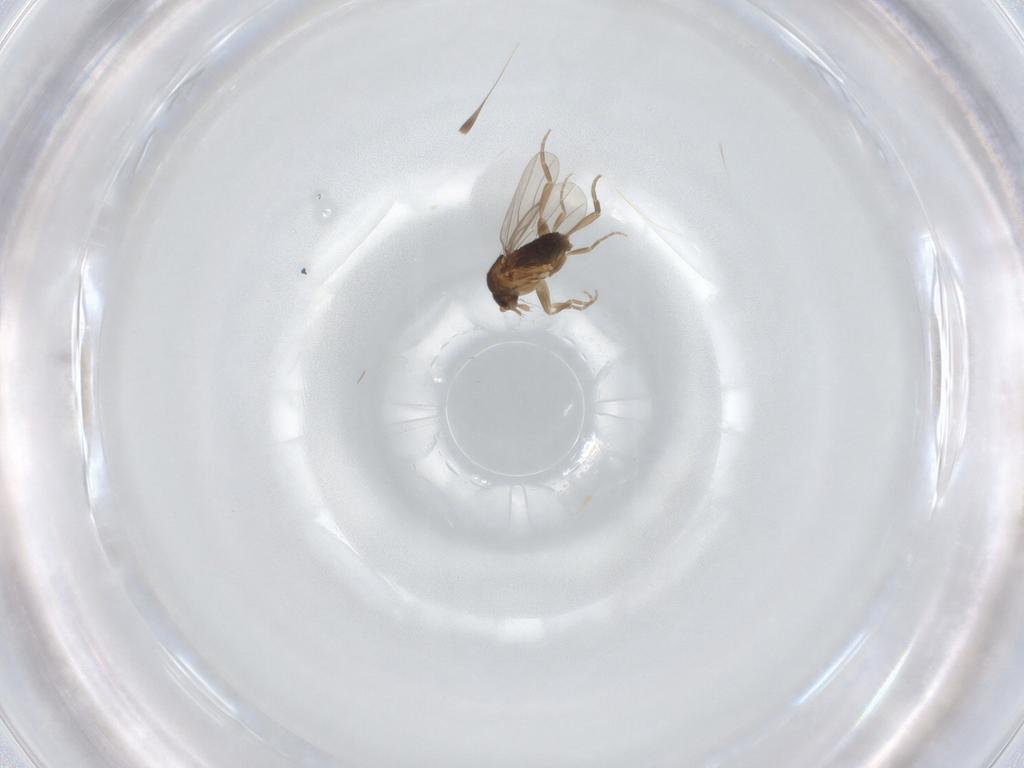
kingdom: Animalia
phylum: Arthropoda
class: Insecta
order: Diptera
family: Phoridae
